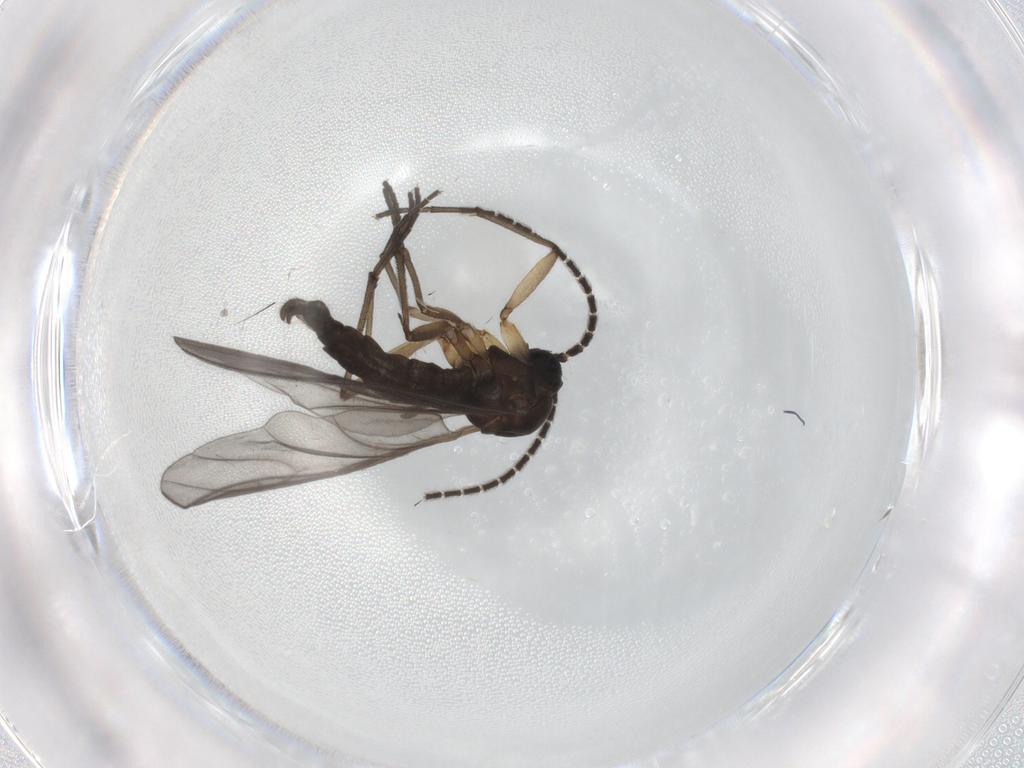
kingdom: Animalia
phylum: Arthropoda
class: Insecta
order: Diptera
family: Sciaridae
